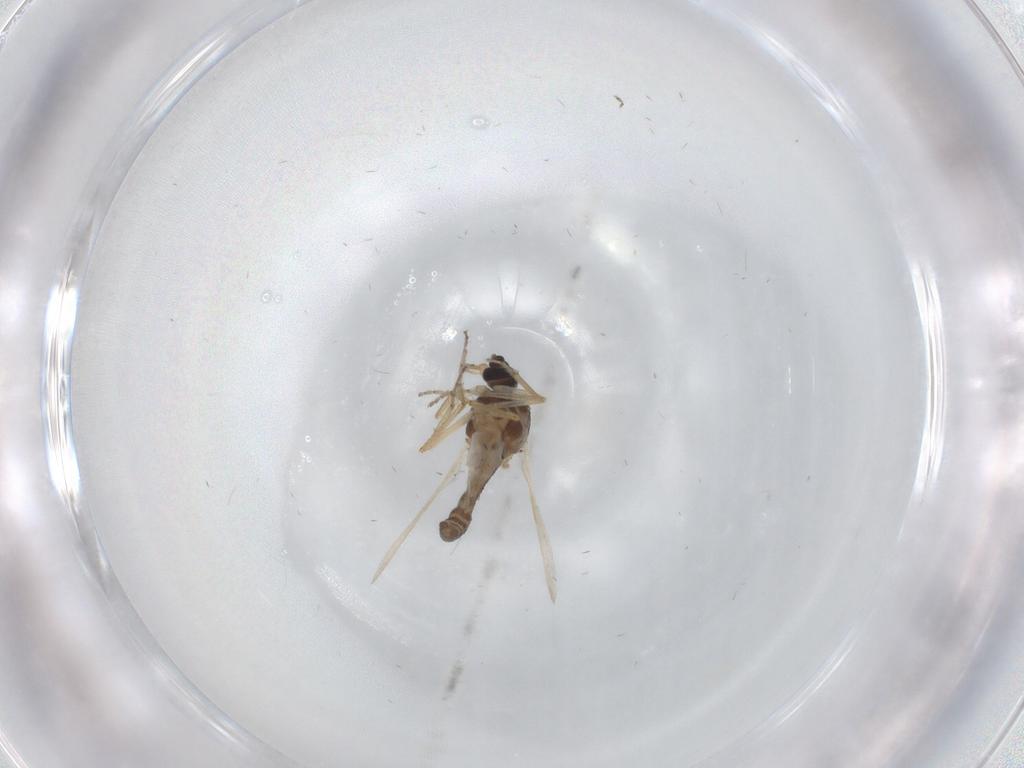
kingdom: Animalia
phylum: Arthropoda
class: Insecta
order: Diptera
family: Ceratopogonidae
